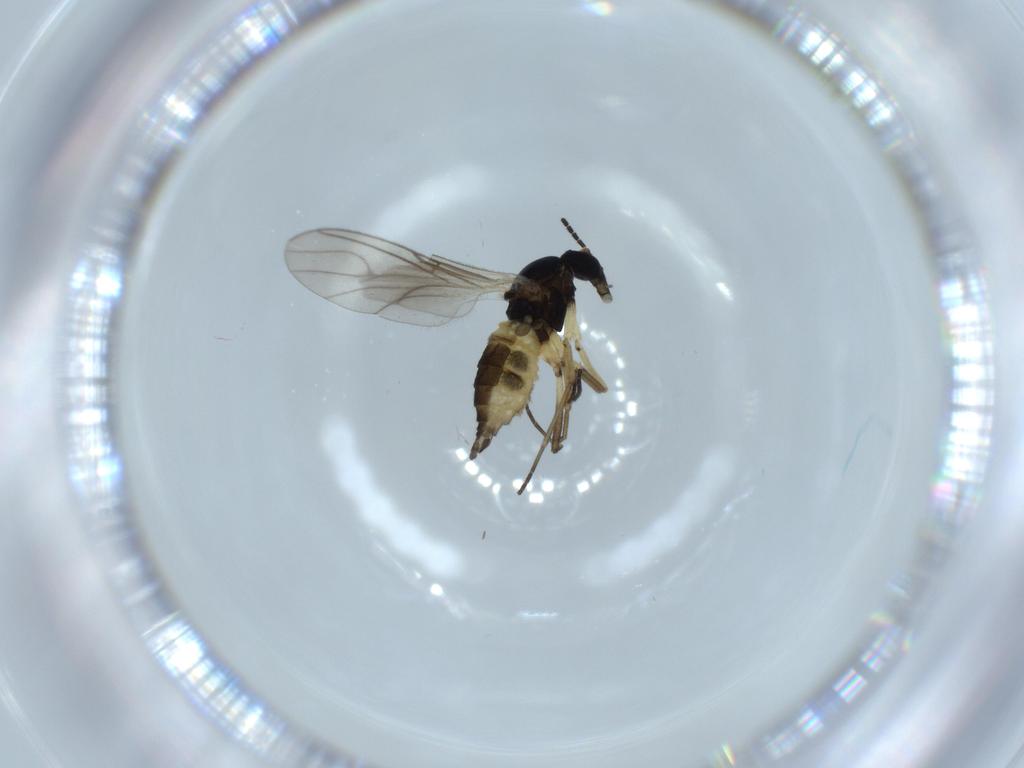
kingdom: Animalia
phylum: Arthropoda
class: Insecta
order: Diptera
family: Sciaridae
